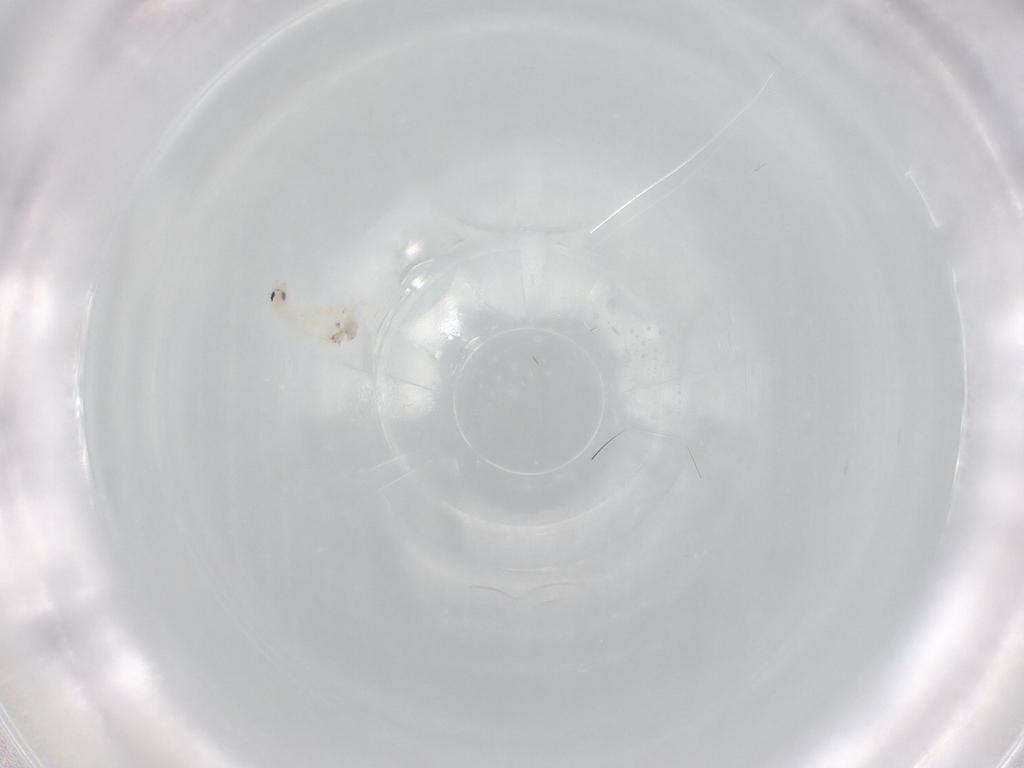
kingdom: Animalia
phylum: Arthropoda
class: Collembola
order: Entomobryomorpha
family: Entomobryidae
